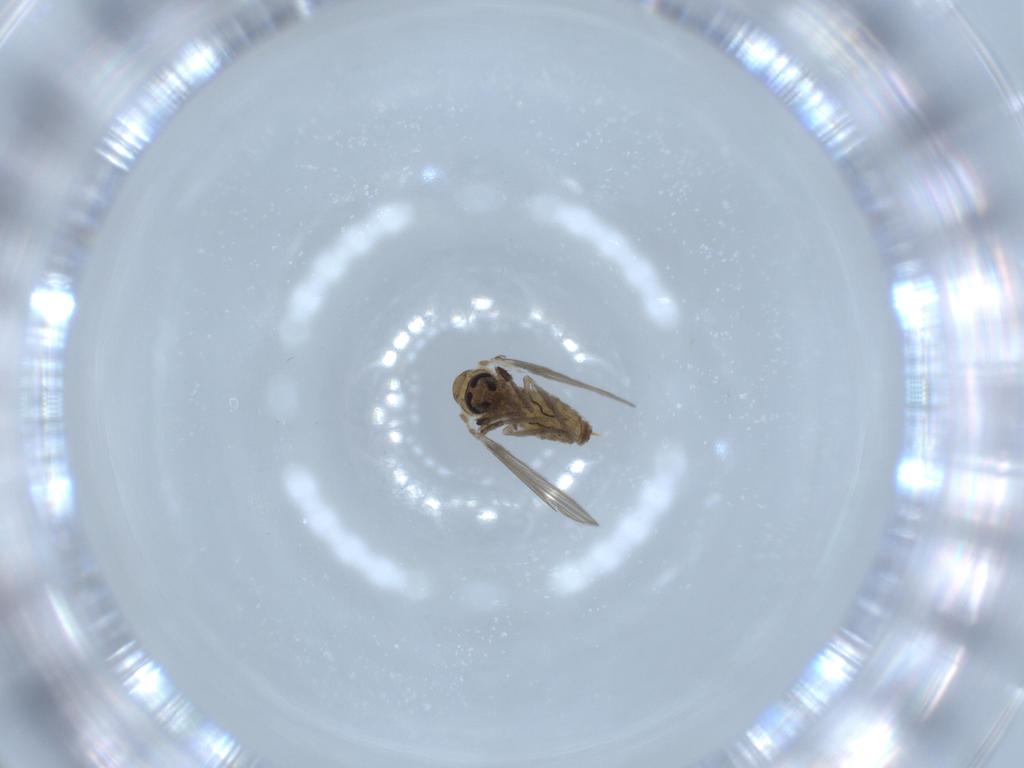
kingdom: Animalia
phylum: Arthropoda
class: Insecta
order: Diptera
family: Psychodidae
